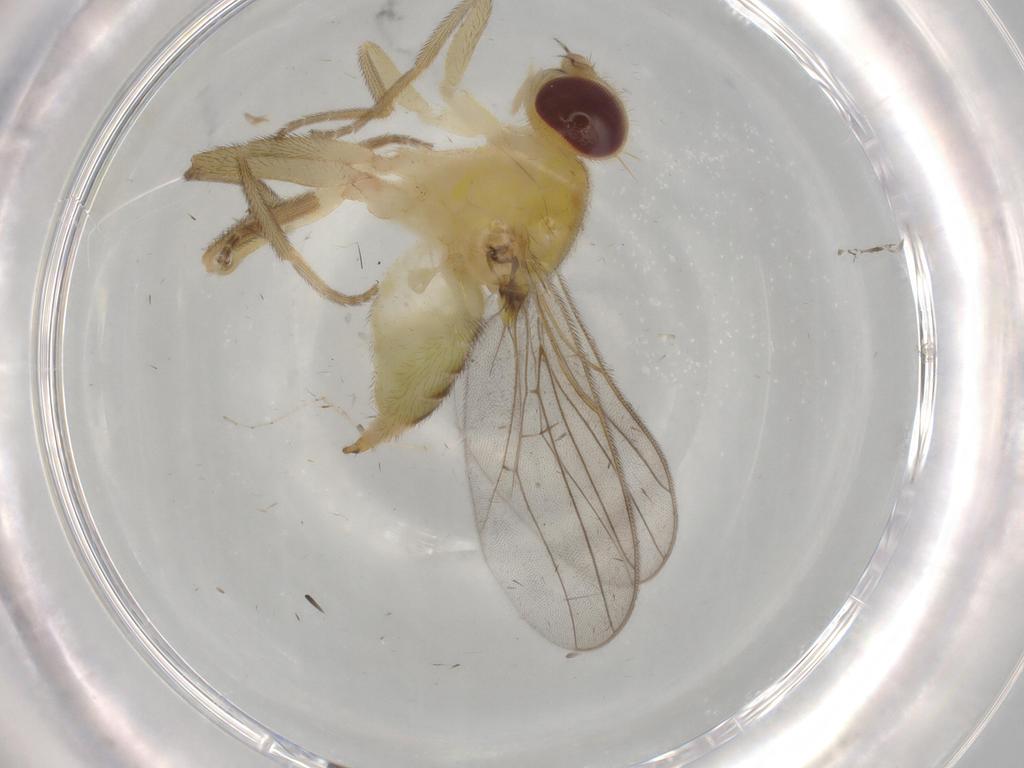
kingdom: Animalia
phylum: Arthropoda
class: Insecta
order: Diptera
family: Chloropidae
